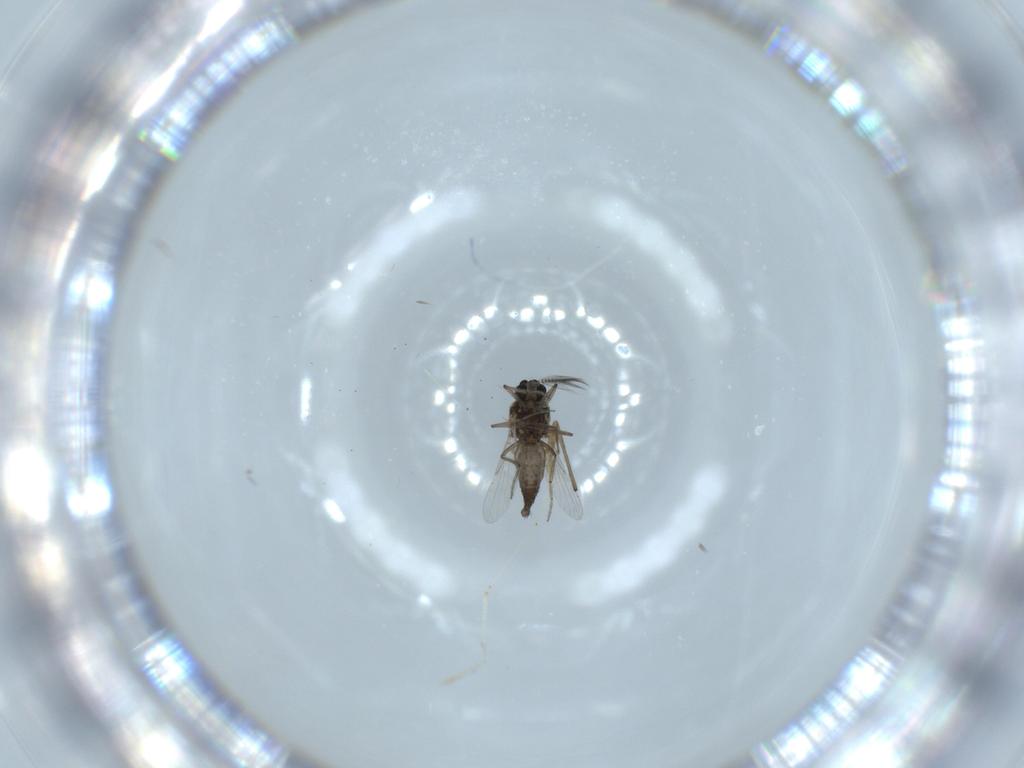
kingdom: Animalia
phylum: Arthropoda
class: Insecta
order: Diptera
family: Chironomidae
